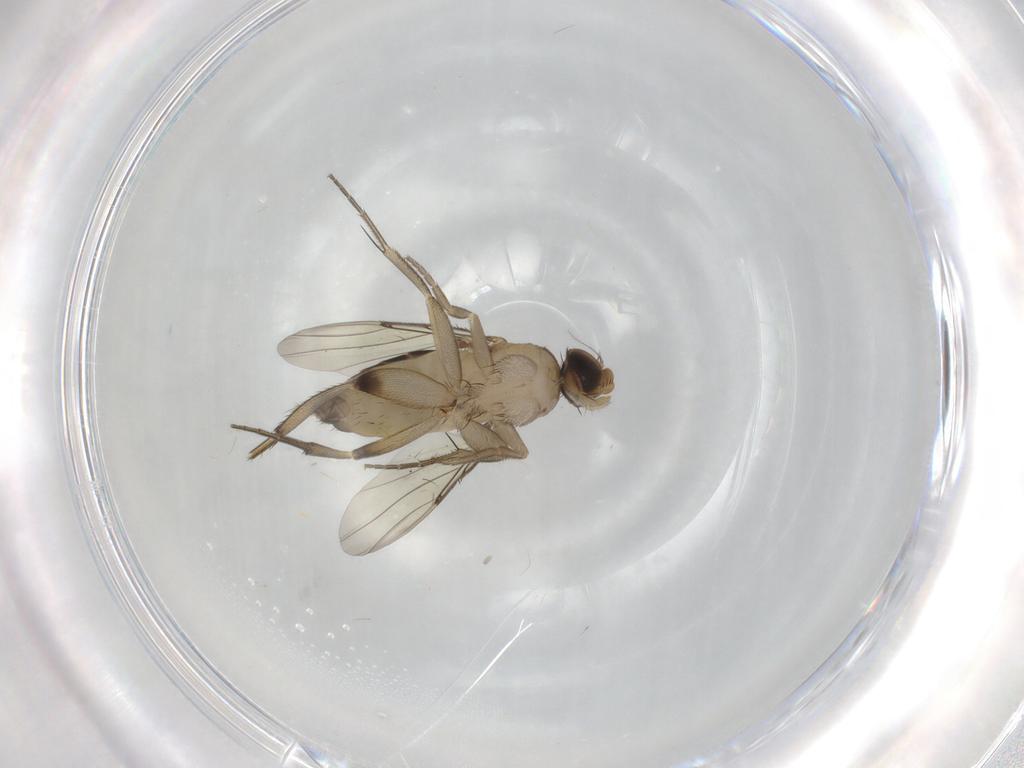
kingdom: Animalia
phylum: Arthropoda
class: Insecta
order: Diptera
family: Phoridae
